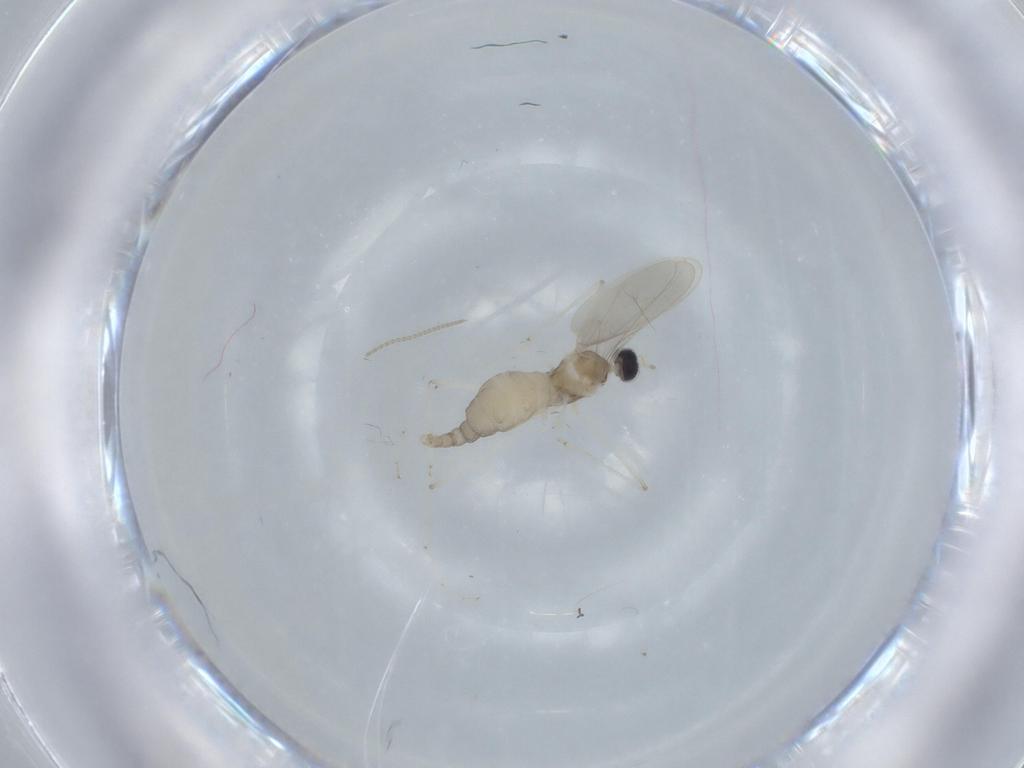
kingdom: Animalia
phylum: Arthropoda
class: Insecta
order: Diptera
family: Cecidomyiidae
